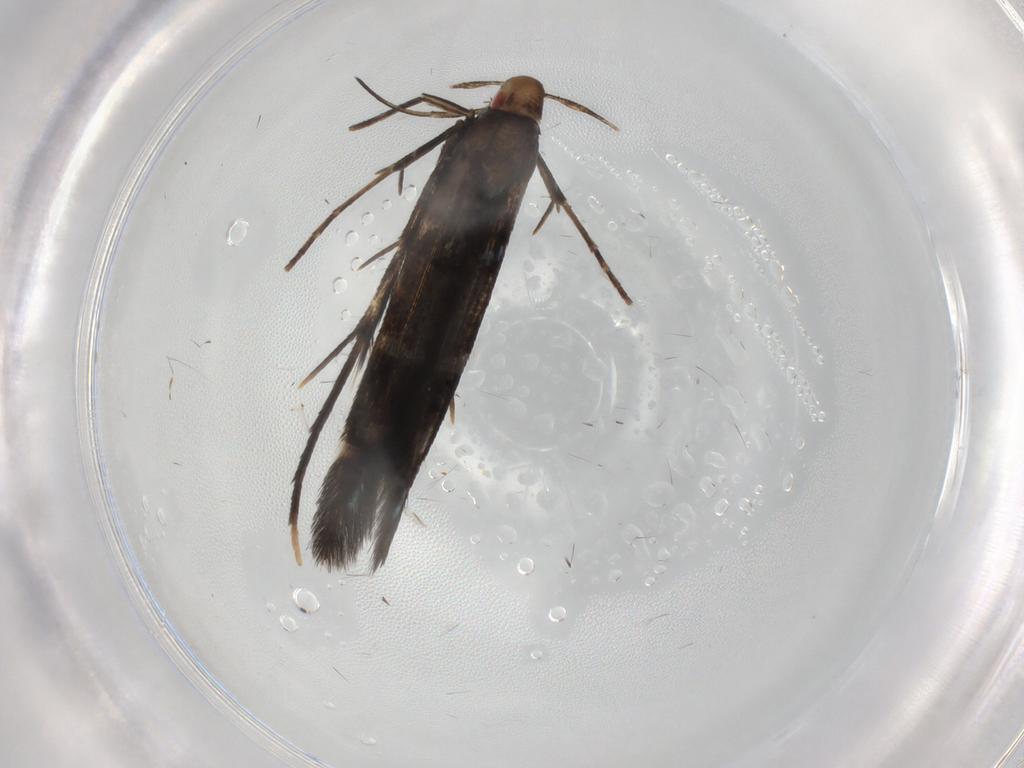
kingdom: Animalia
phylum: Arthropoda
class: Insecta
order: Lepidoptera
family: Cosmopterigidae
